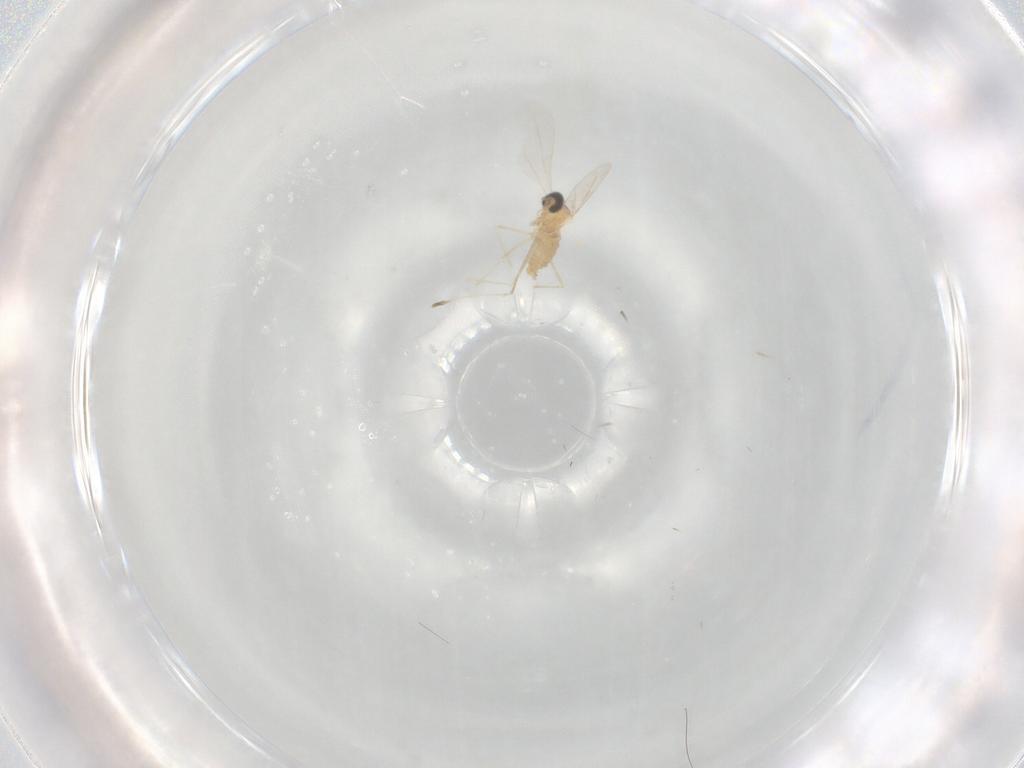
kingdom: Animalia
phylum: Arthropoda
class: Insecta
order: Diptera
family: Cecidomyiidae
